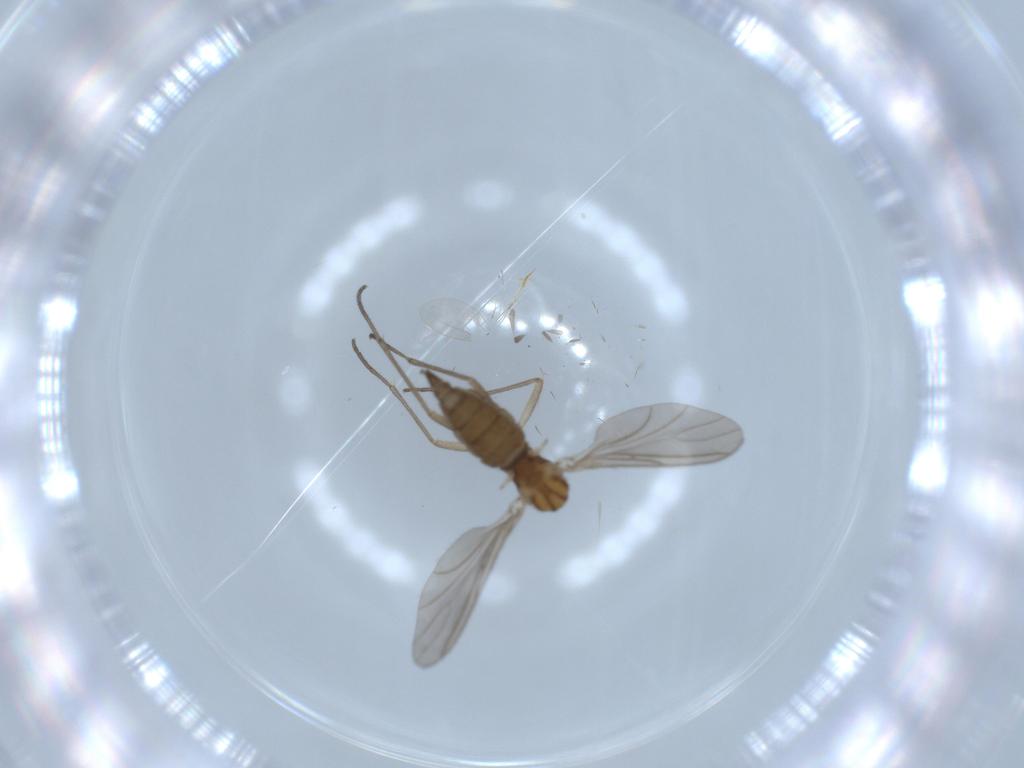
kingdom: Animalia
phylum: Arthropoda
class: Insecta
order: Diptera
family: Sciaridae
